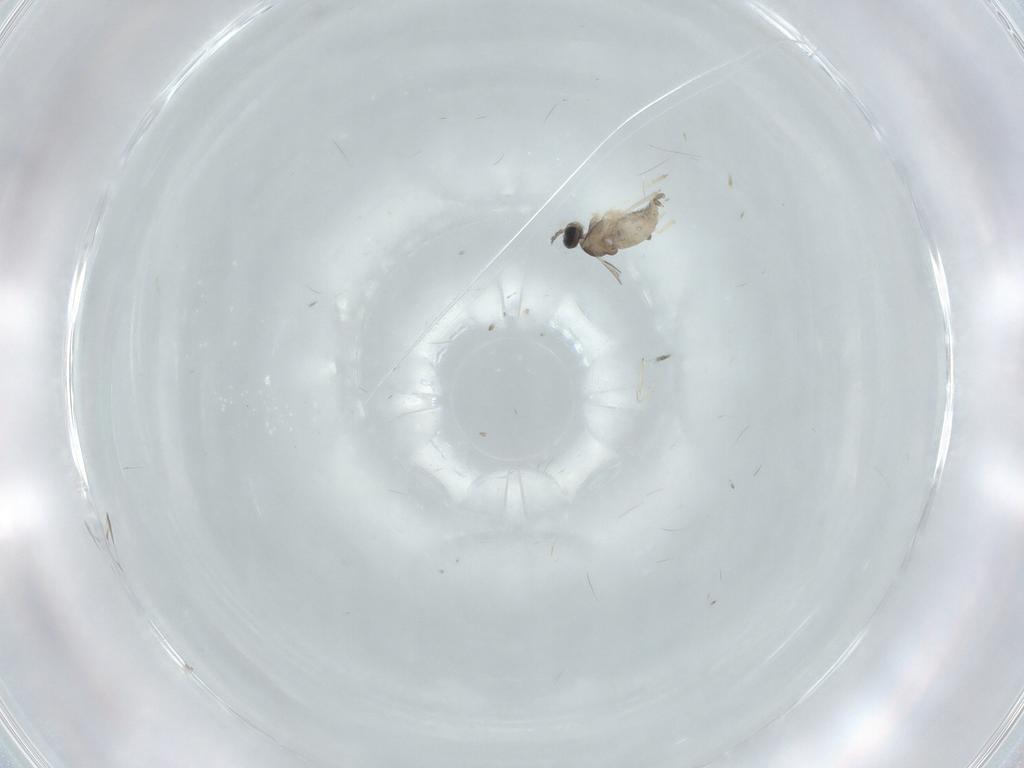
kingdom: Animalia
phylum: Arthropoda
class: Insecta
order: Diptera
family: Cecidomyiidae
